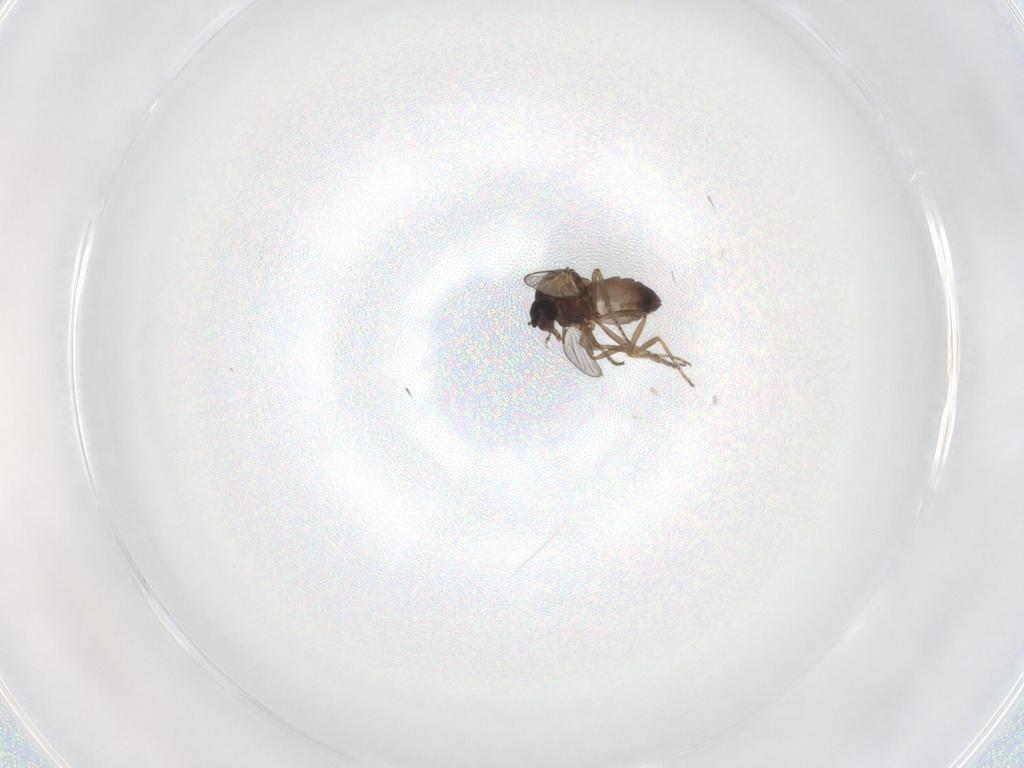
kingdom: Animalia
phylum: Arthropoda
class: Insecta
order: Diptera
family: Ceratopogonidae
